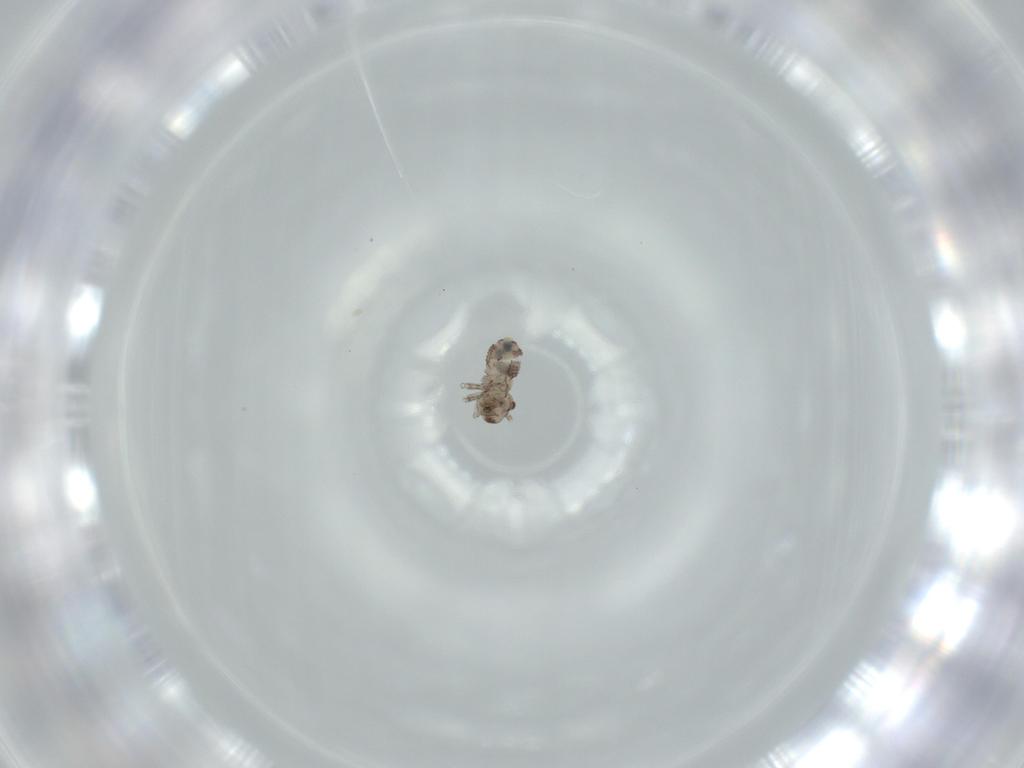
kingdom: Animalia
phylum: Arthropoda
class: Insecta
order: Psocodea
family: Psocidae
